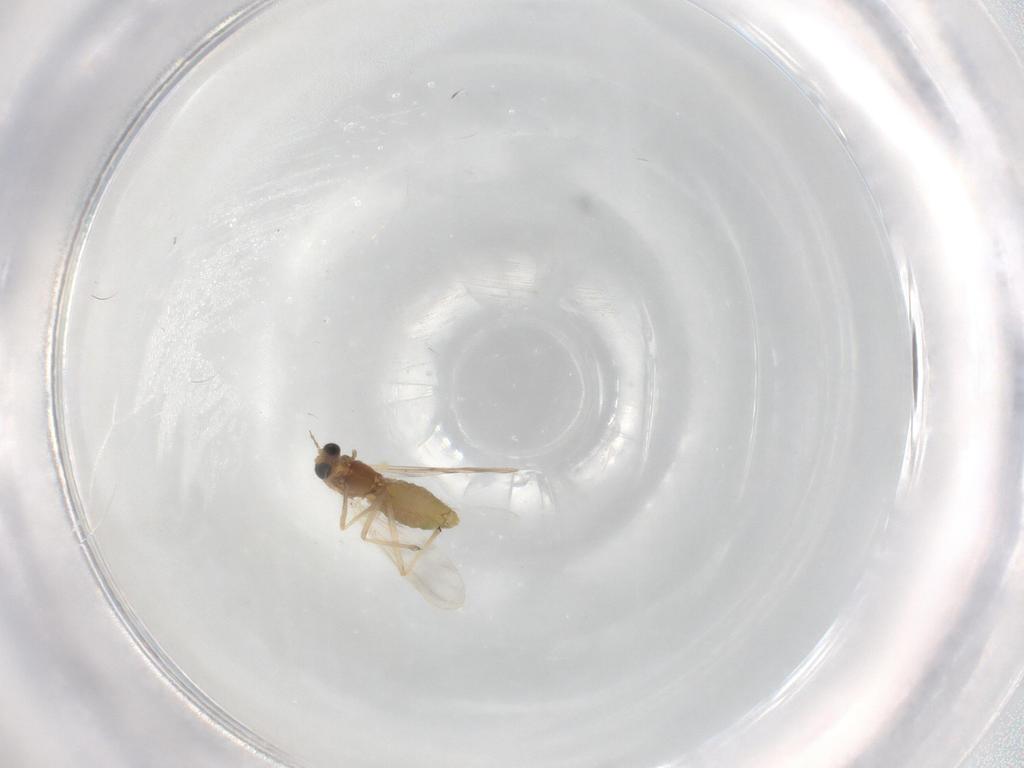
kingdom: Animalia
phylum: Arthropoda
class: Insecta
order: Diptera
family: Chironomidae
